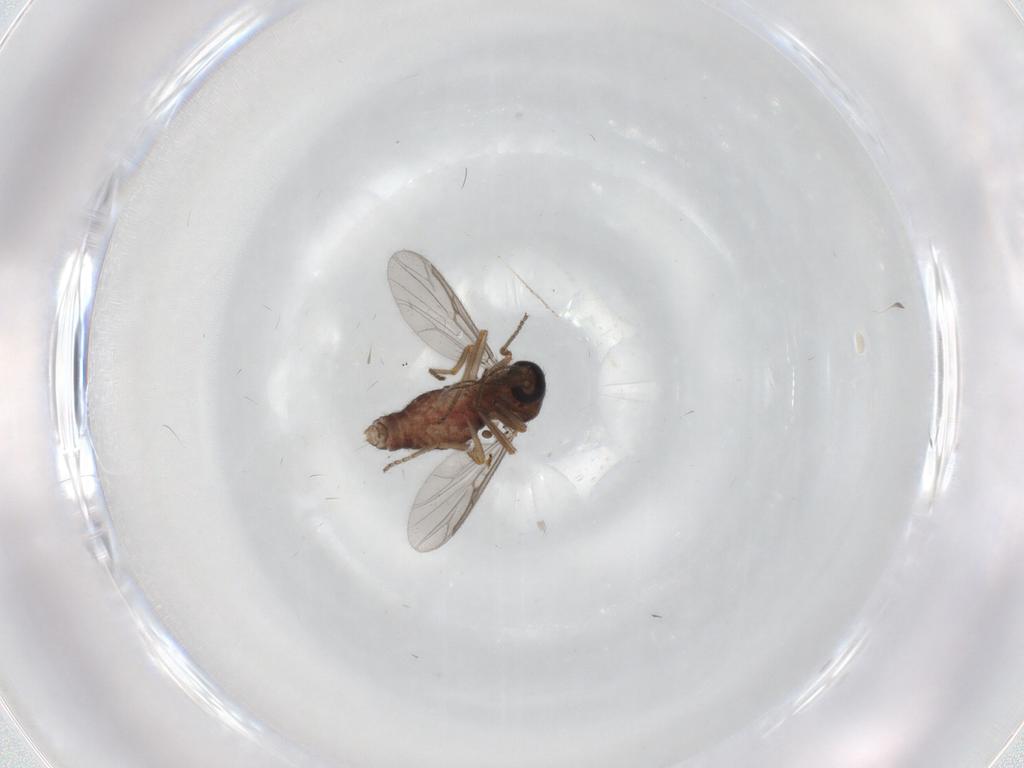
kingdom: Animalia
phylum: Arthropoda
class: Insecta
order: Diptera
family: Ceratopogonidae
